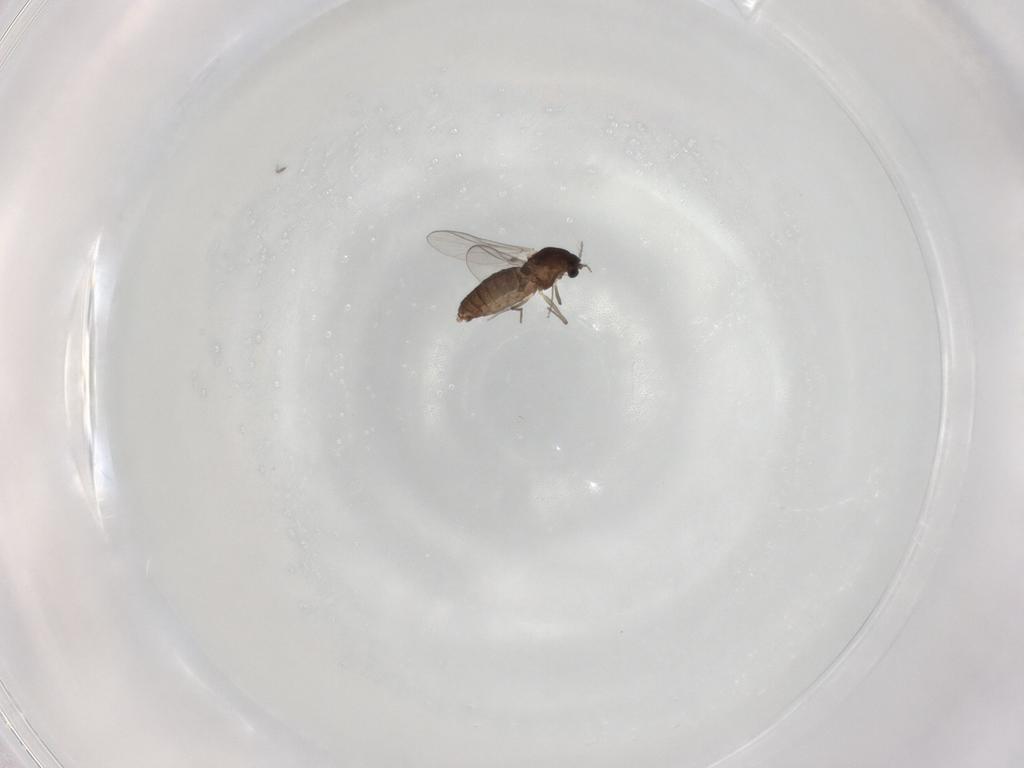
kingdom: Animalia
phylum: Arthropoda
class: Insecta
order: Diptera
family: Chironomidae
